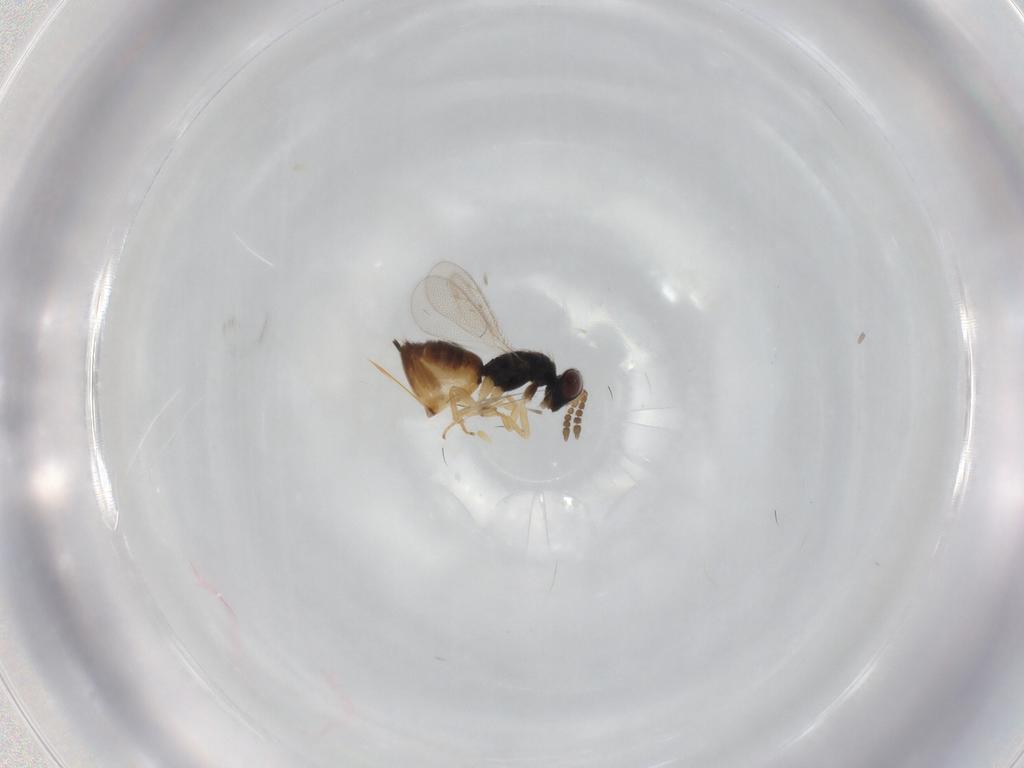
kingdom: Animalia
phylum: Arthropoda
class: Insecta
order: Hymenoptera
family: Eulophidae
